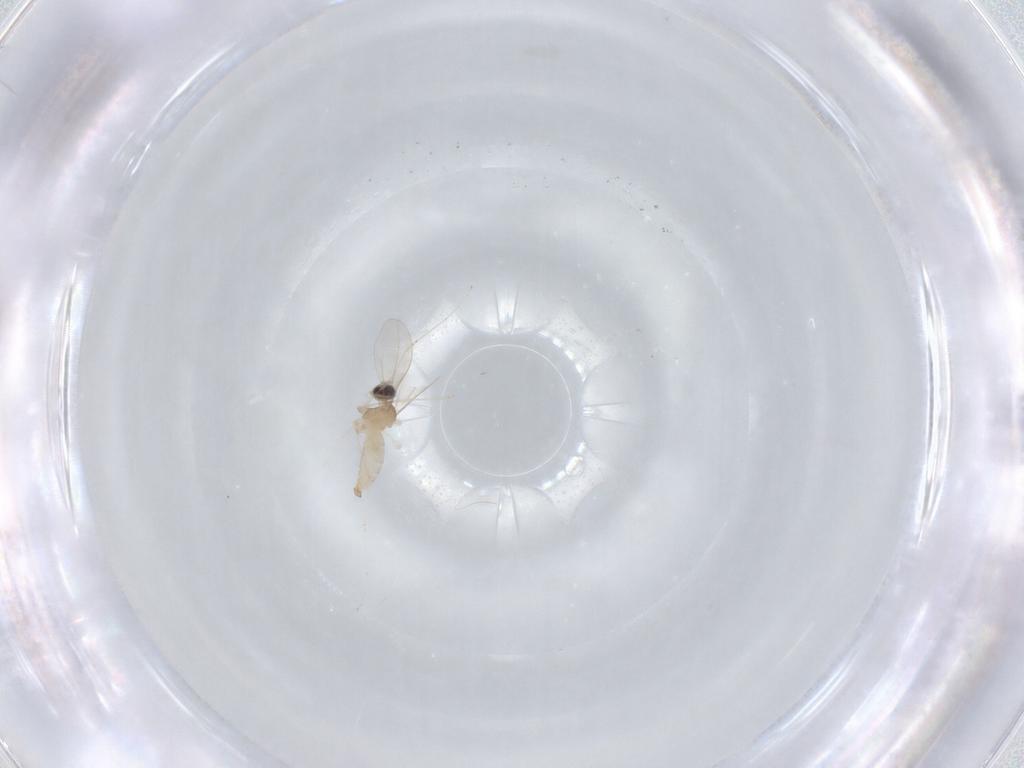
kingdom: Animalia
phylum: Arthropoda
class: Insecta
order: Diptera
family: Cecidomyiidae
